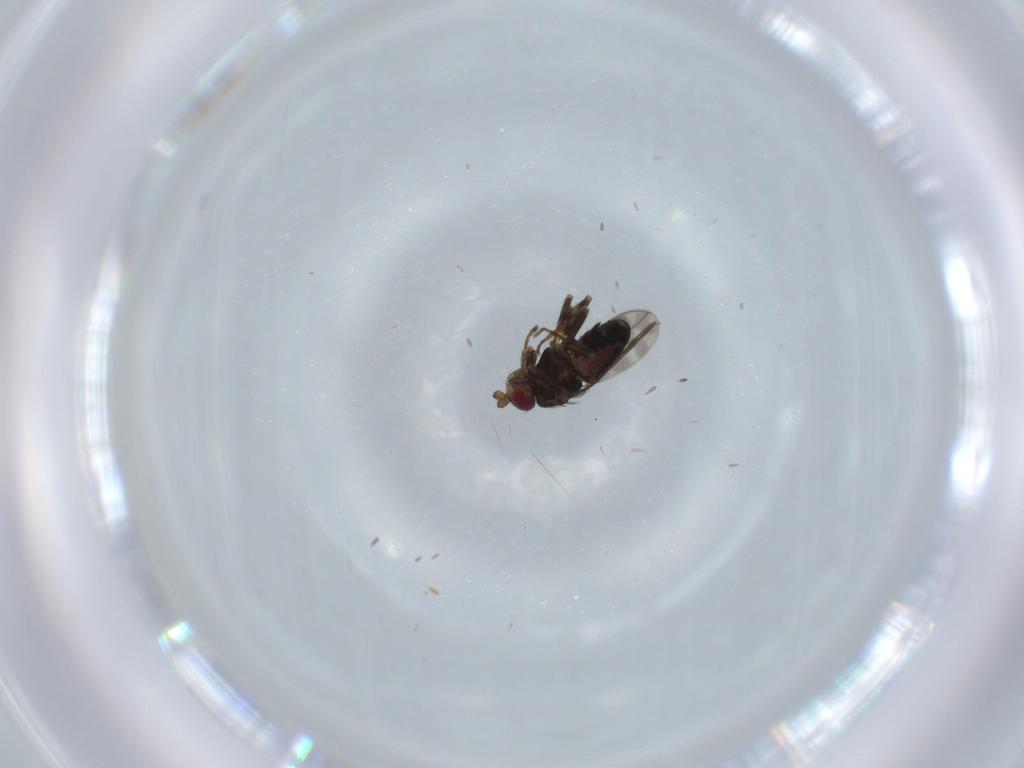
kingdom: Animalia
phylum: Arthropoda
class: Insecta
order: Diptera
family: Sphaeroceridae
